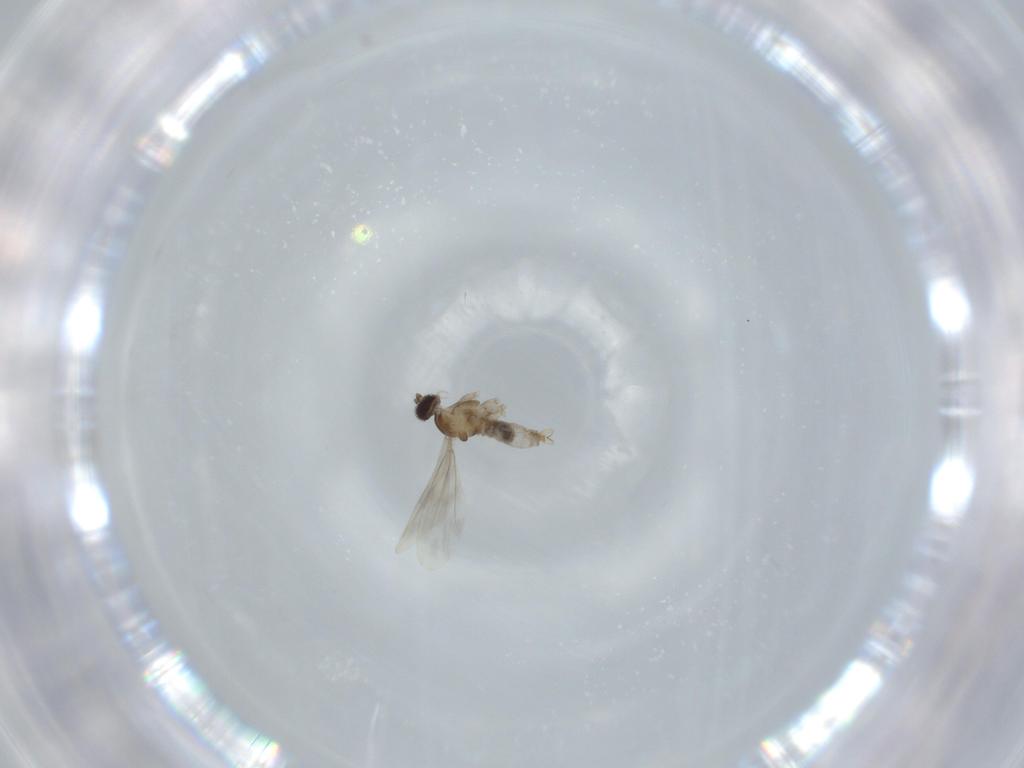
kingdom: Animalia
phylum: Arthropoda
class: Insecta
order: Diptera
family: Cecidomyiidae
